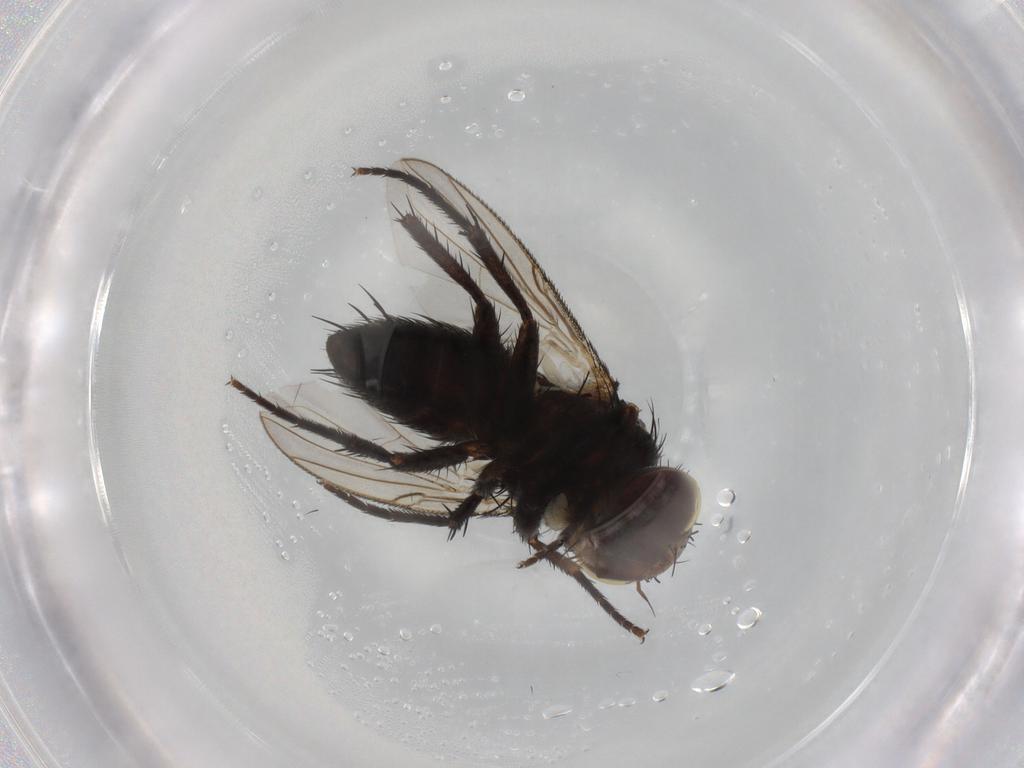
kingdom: Animalia
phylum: Arthropoda
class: Insecta
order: Diptera
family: Tachinidae
